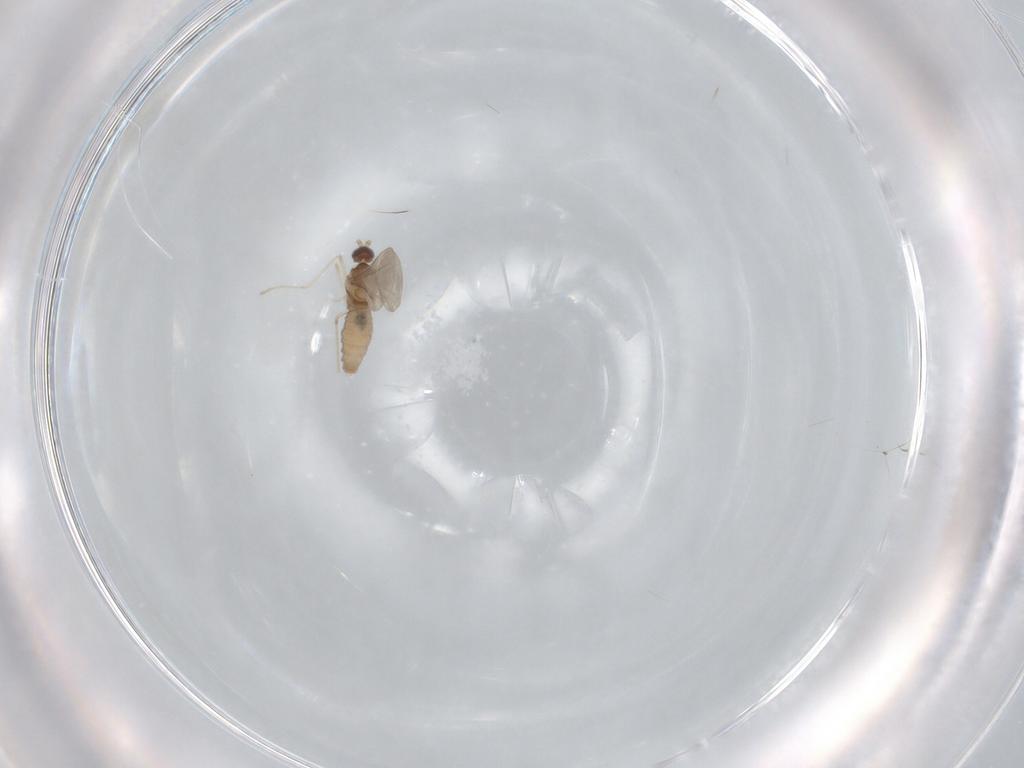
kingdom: Animalia
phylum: Arthropoda
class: Insecta
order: Diptera
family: Cecidomyiidae
